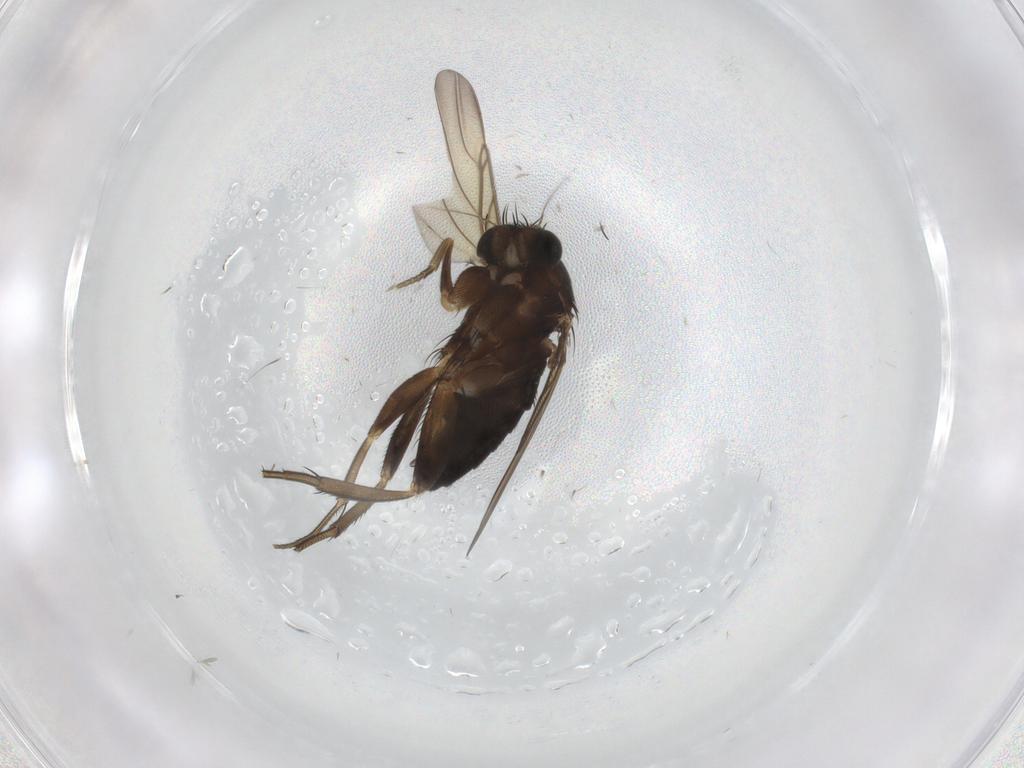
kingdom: Animalia
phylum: Arthropoda
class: Insecta
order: Diptera
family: Phoridae
